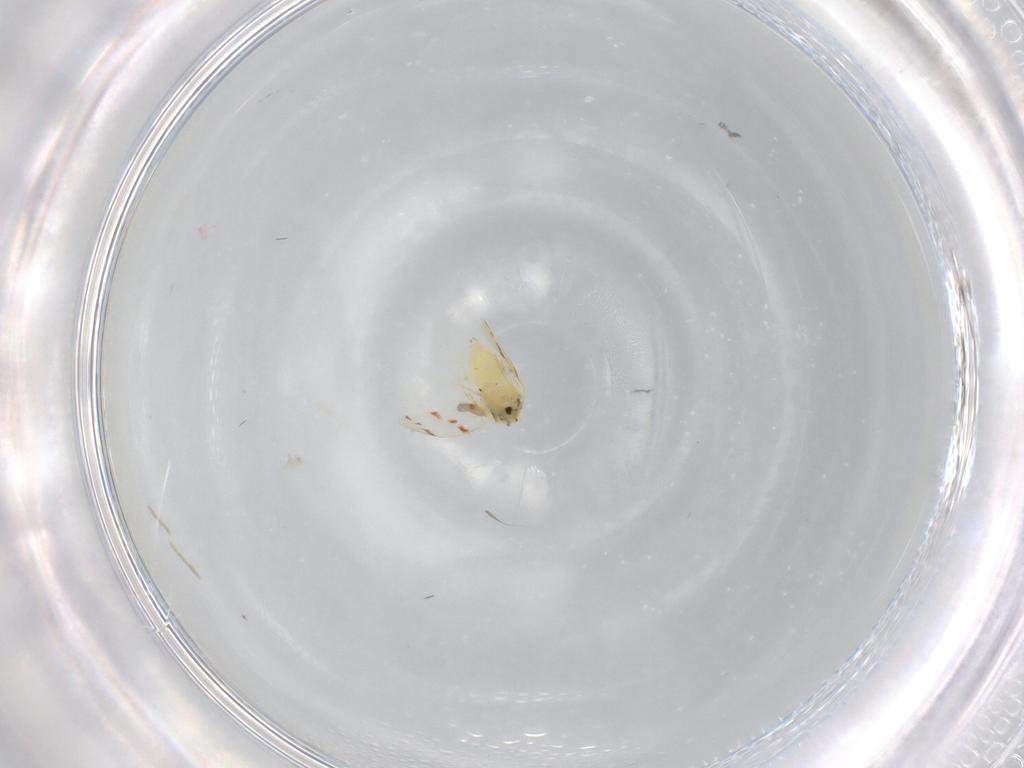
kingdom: Animalia
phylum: Arthropoda
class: Insecta
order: Hemiptera
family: Aleyrodidae
